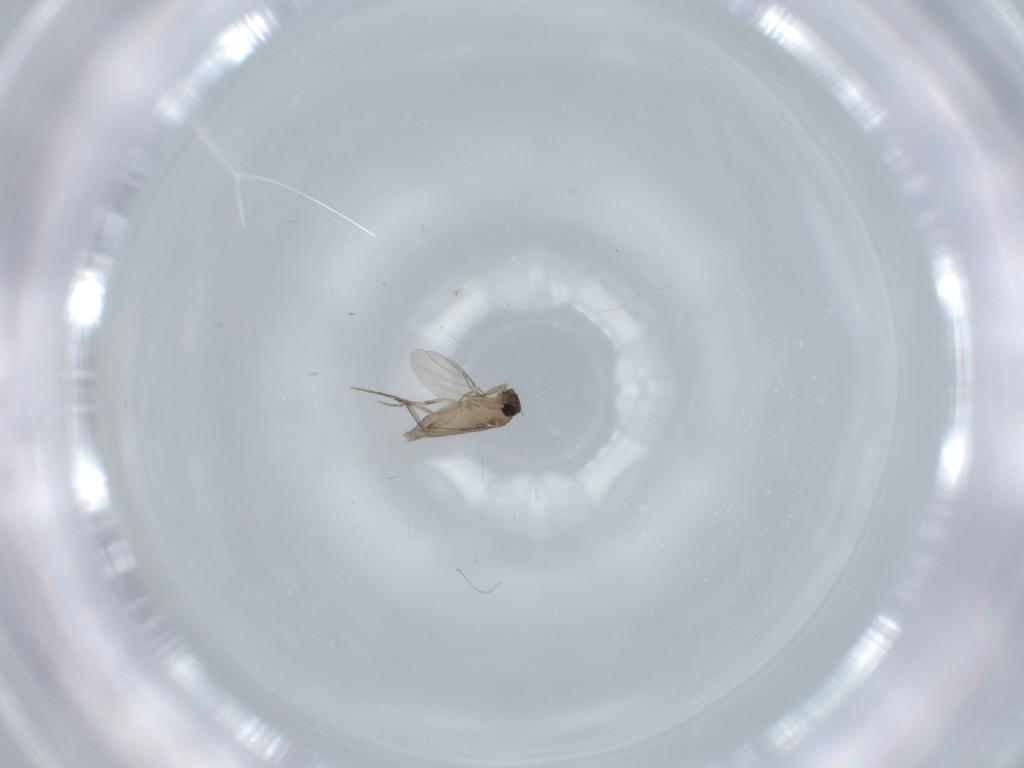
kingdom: Animalia
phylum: Arthropoda
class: Insecta
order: Diptera
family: Phoridae
